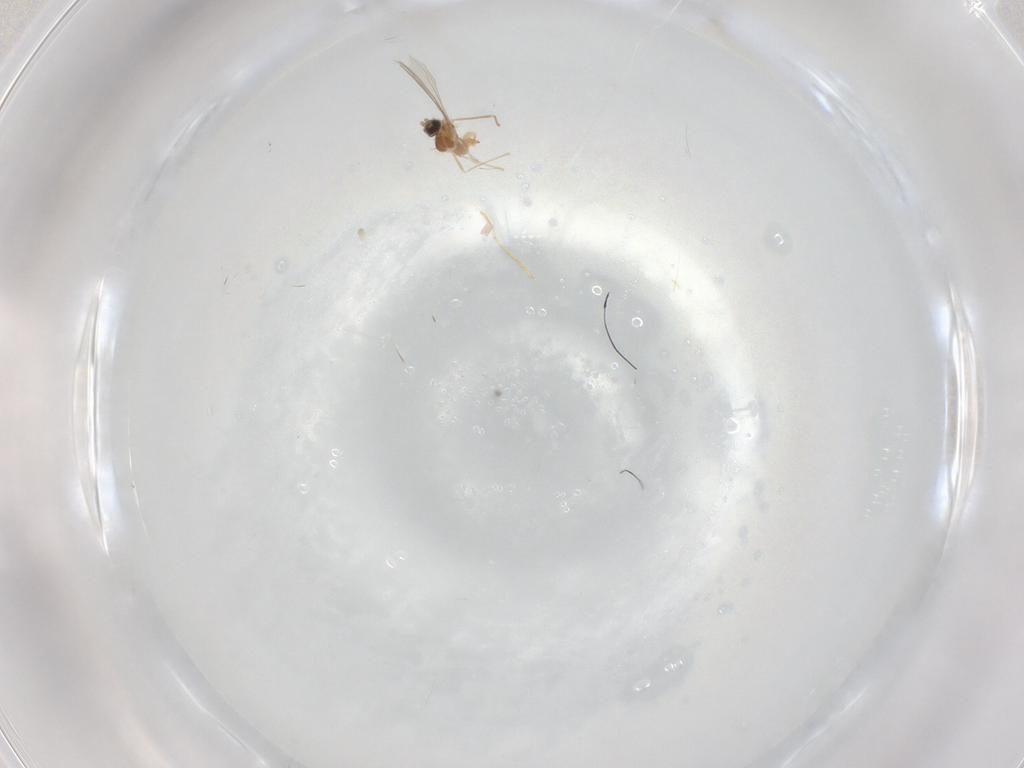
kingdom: Animalia
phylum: Arthropoda
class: Insecta
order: Diptera
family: Cecidomyiidae
